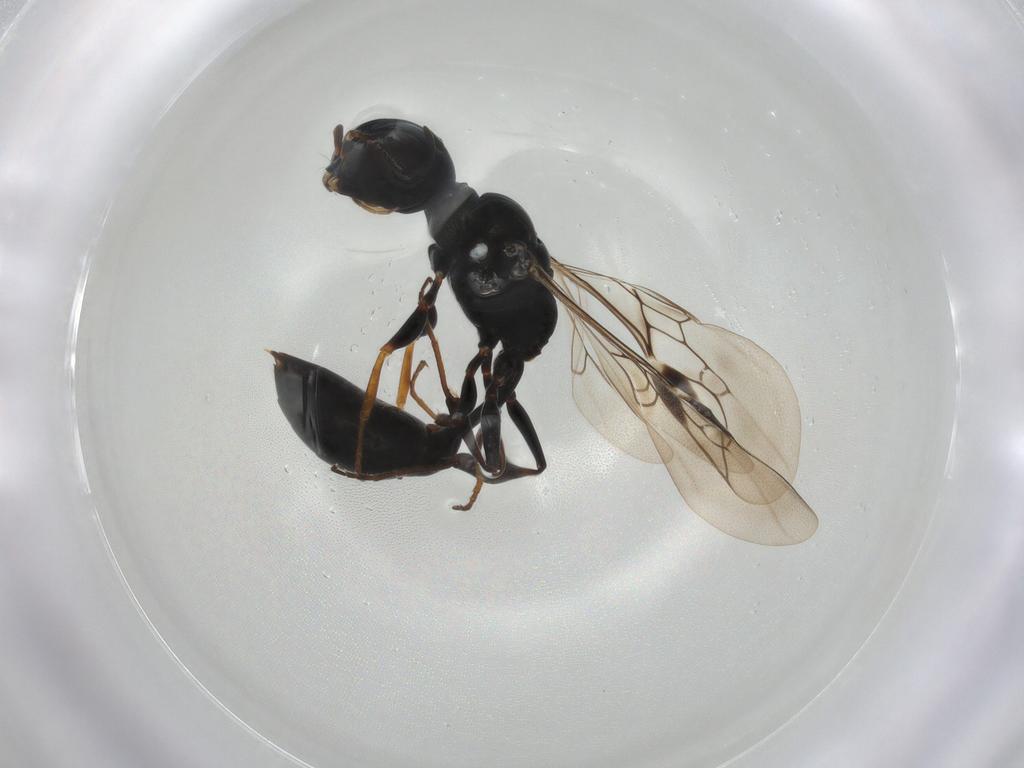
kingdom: Animalia
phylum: Arthropoda
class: Insecta
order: Hymenoptera
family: Crabronidae
